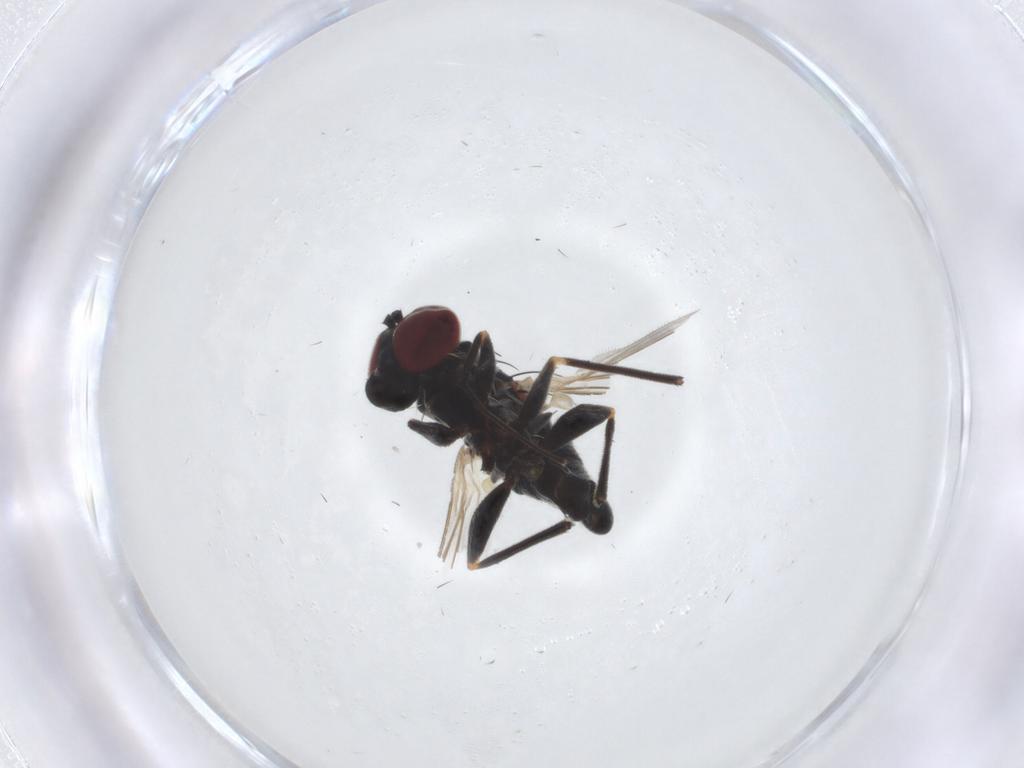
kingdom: Animalia
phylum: Arthropoda
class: Insecta
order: Diptera
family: Dolichopodidae
